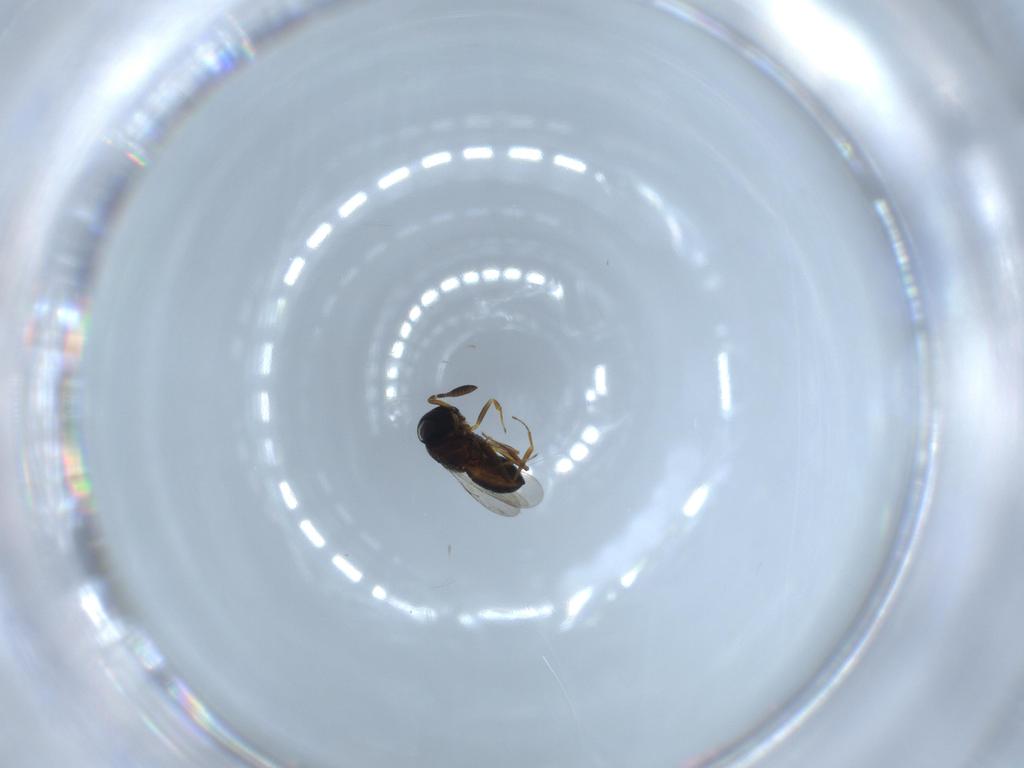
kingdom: Animalia
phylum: Arthropoda
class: Insecta
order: Hymenoptera
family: Scelionidae
